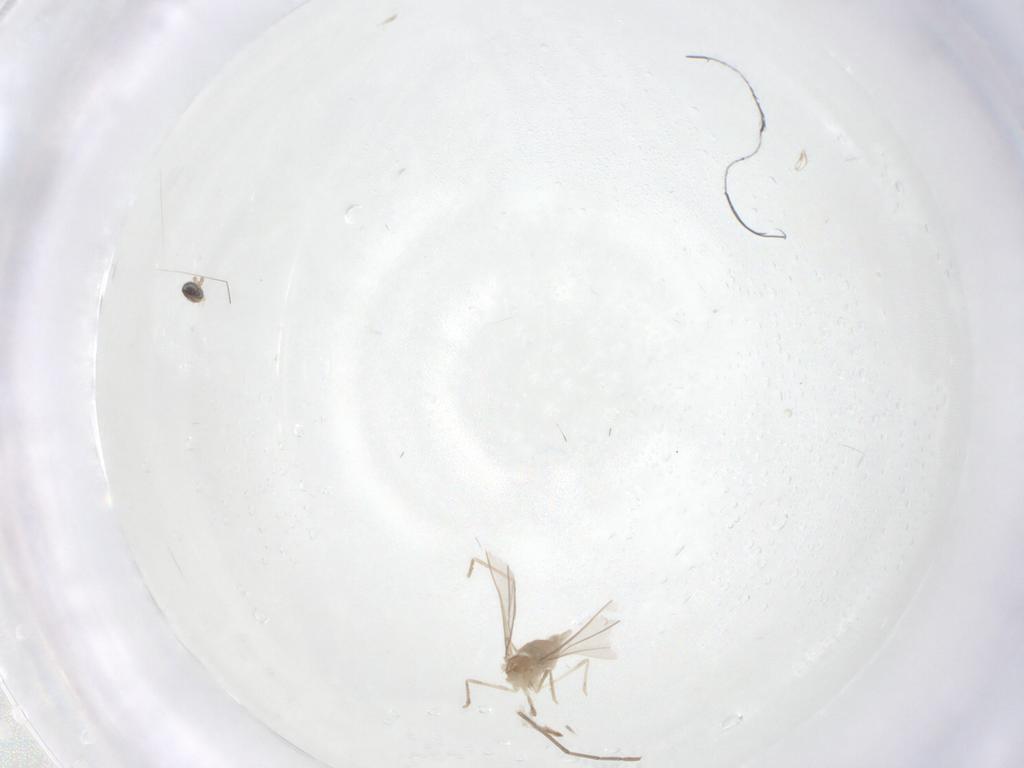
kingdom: Animalia
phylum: Arthropoda
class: Insecta
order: Diptera
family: Cecidomyiidae
